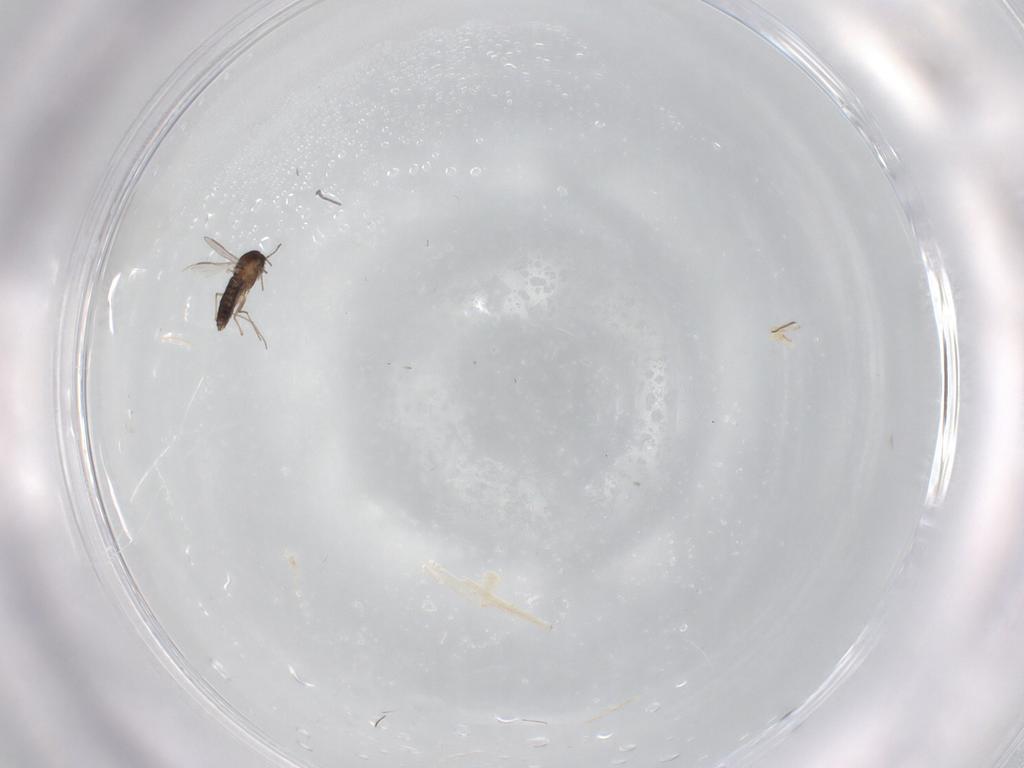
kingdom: Animalia
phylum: Arthropoda
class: Insecta
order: Diptera
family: Chironomidae
